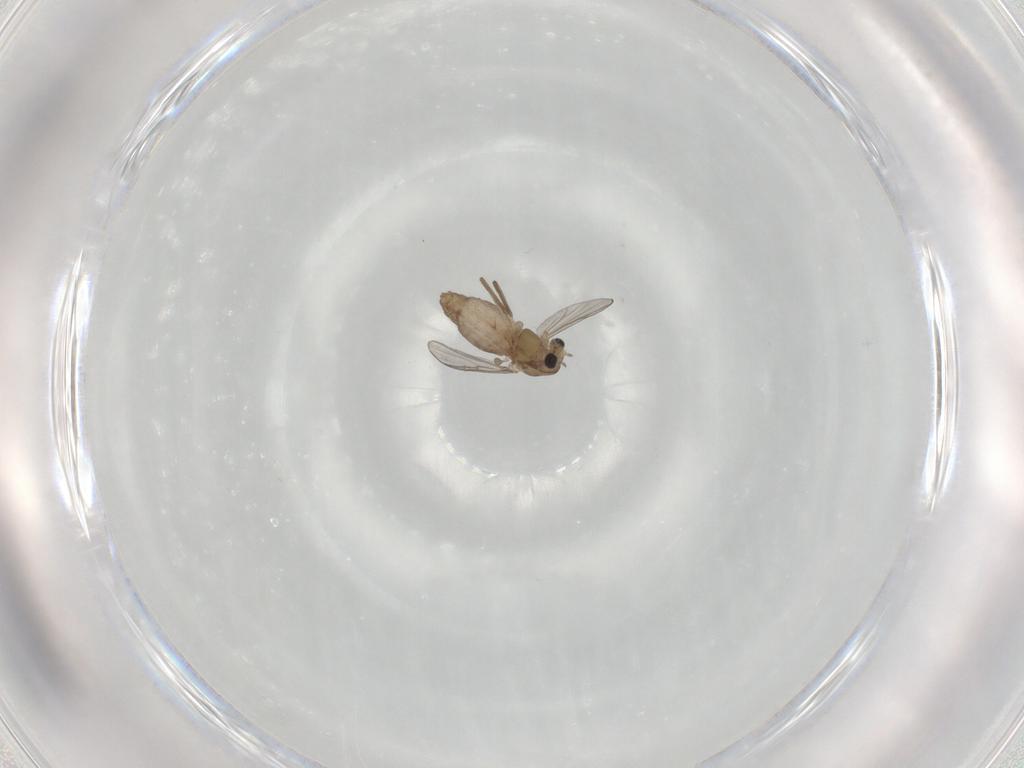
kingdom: Animalia
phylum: Arthropoda
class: Insecta
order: Diptera
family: Chironomidae
